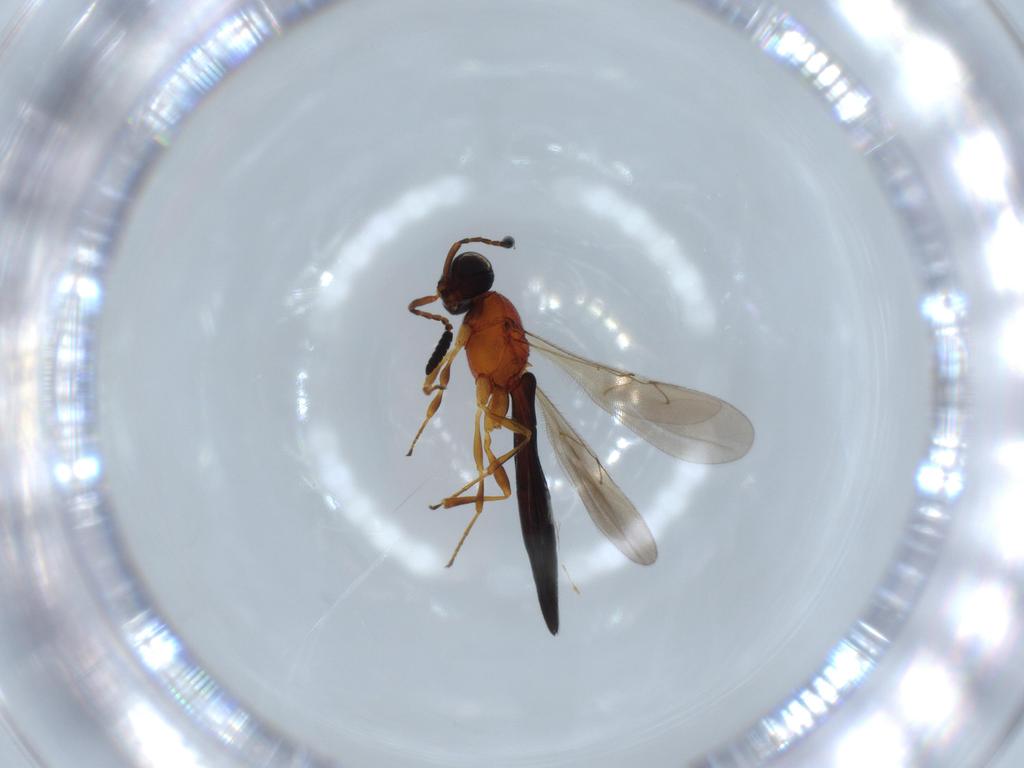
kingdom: Animalia
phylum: Arthropoda
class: Insecta
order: Hymenoptera
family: Scelionidae
